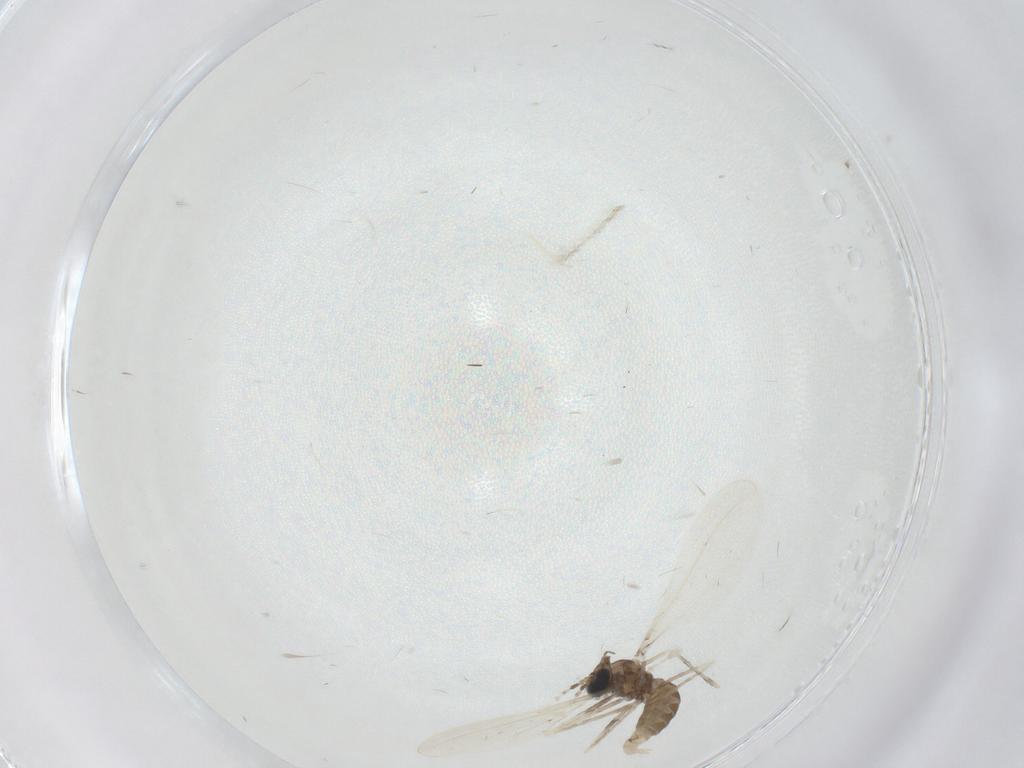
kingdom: Animalia
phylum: Arthropoda
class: Insecta
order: Diptera
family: Cecidomyiidae
